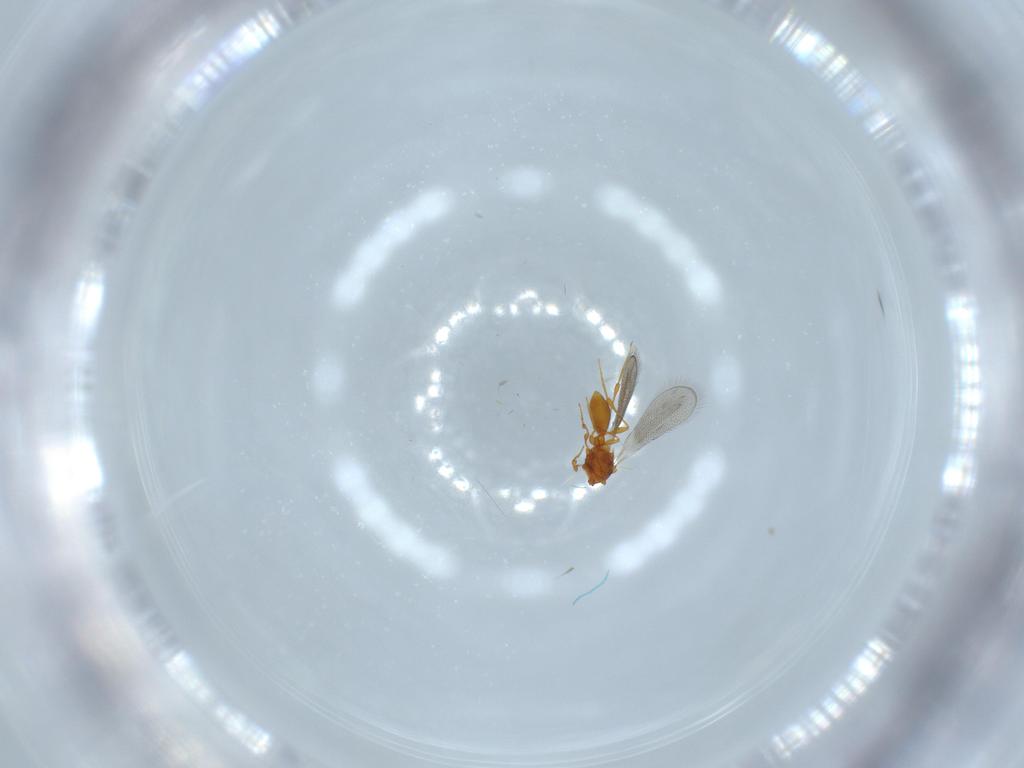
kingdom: Animalia
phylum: Arthropoda
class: Insecta
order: Hymenoptera
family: Platygastridae
